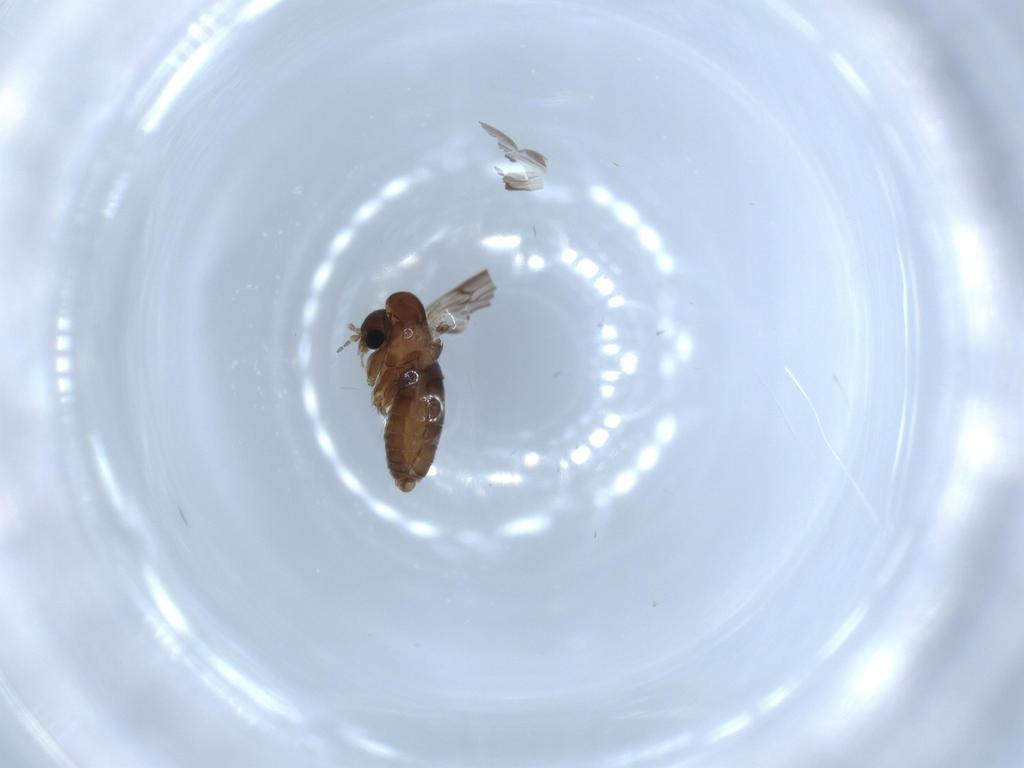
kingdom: Animalia
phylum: Arthropoda
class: Insecta
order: Diptera
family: Psychodidae
